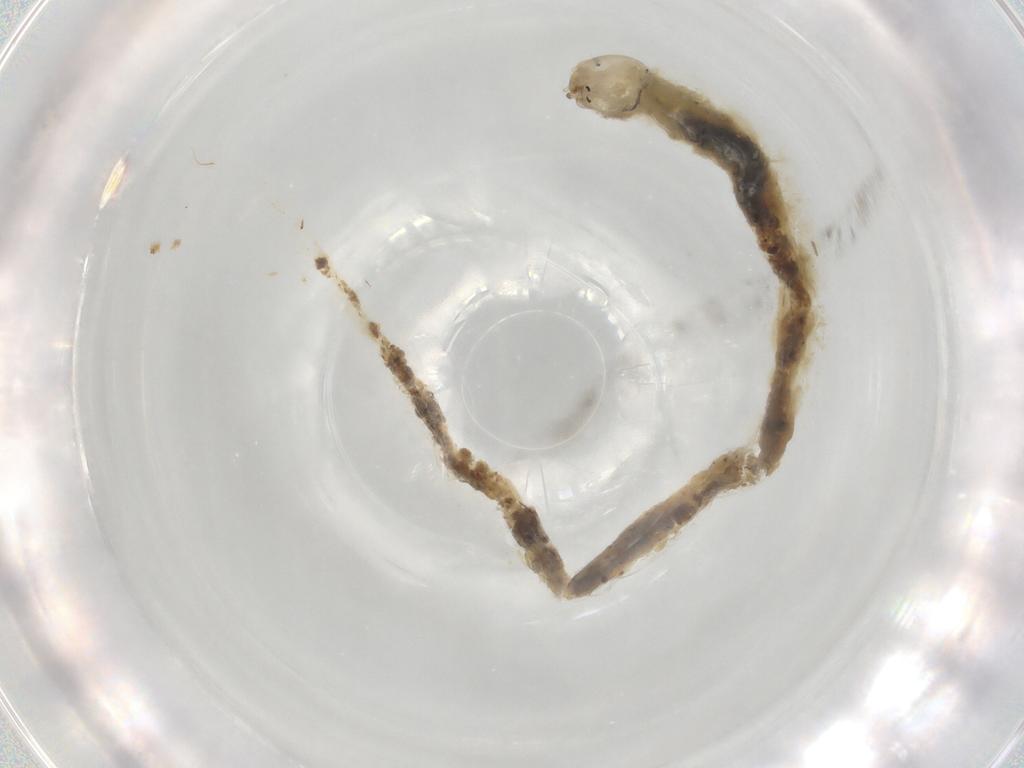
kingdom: Animalia
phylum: Arthropoda
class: Insecta
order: Diptera
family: Chironomidae
